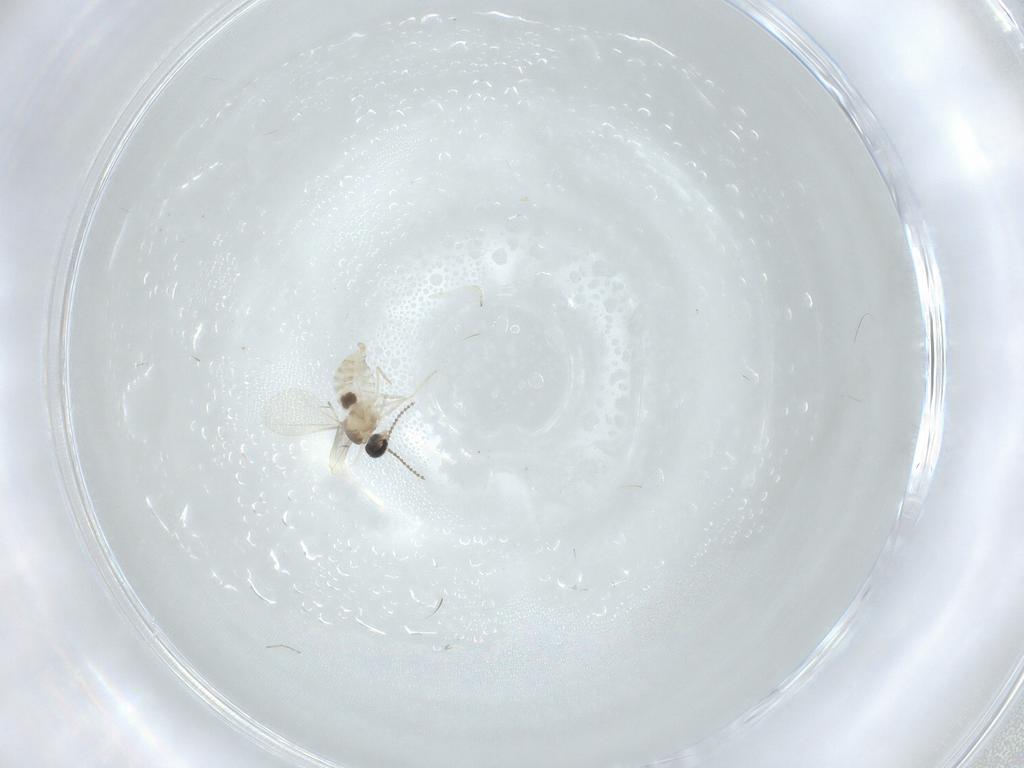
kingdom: Animalia
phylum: Arthropoda
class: Insecta
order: Diptera
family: Cecidomyiidae
